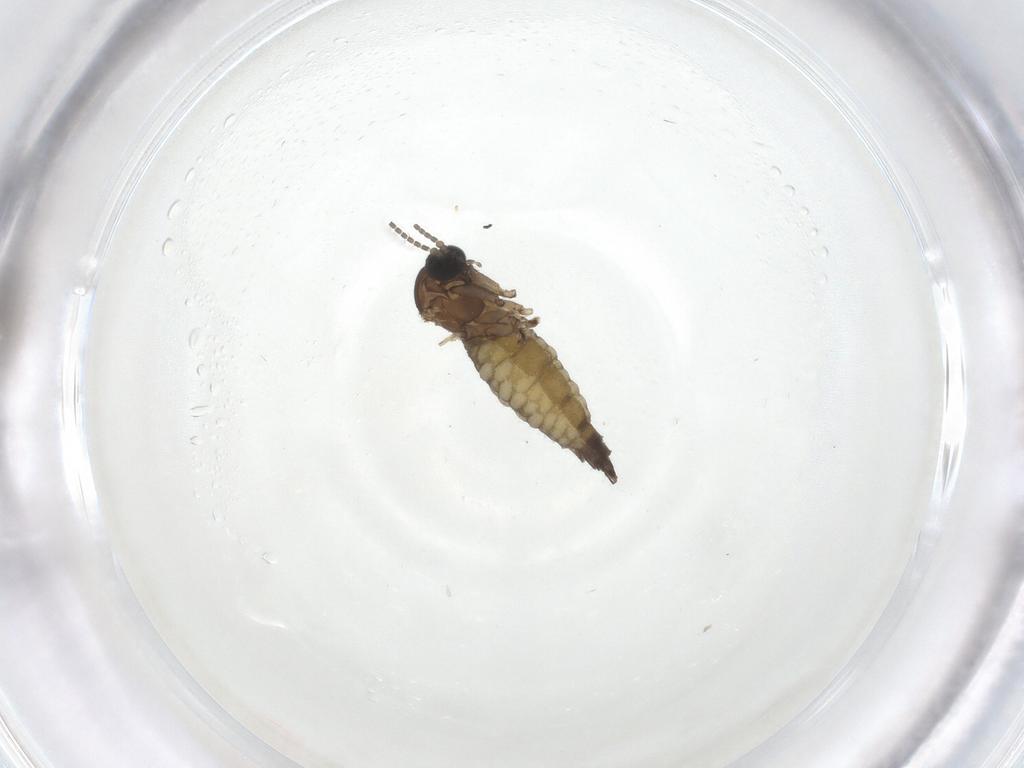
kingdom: Animalia
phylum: Arthropoda
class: Insecta
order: Diptera
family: Sciaridae
